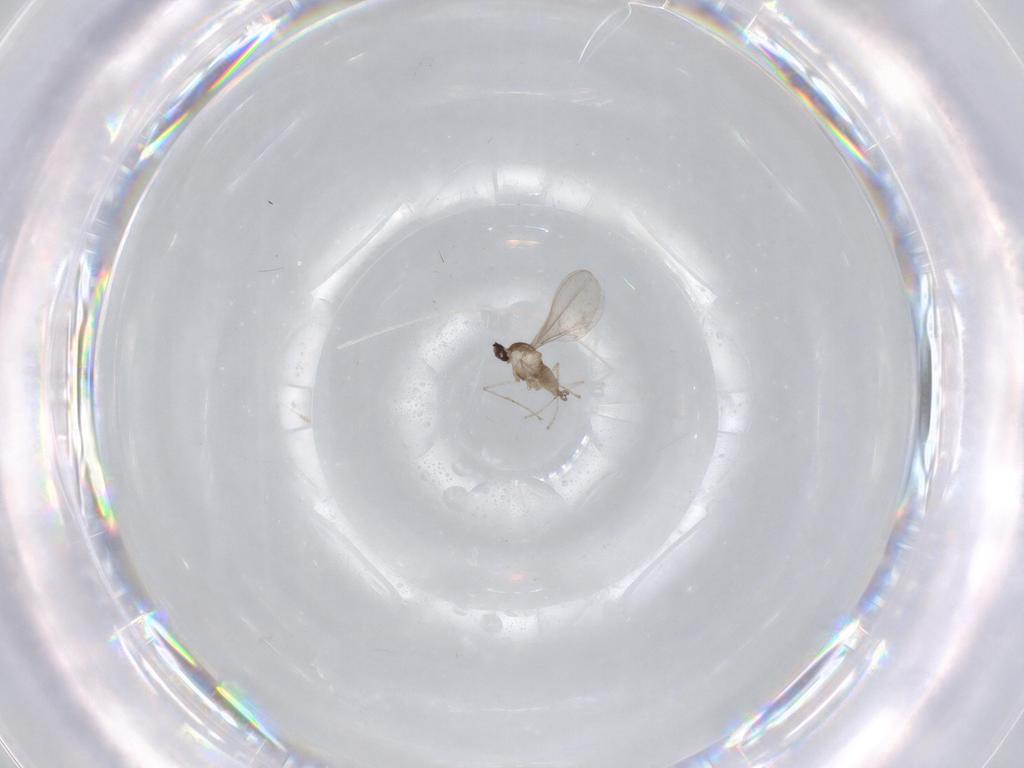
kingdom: Animalia
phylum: Arthropoda
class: Insecta
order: Diptera
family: Cecidomyiidae
